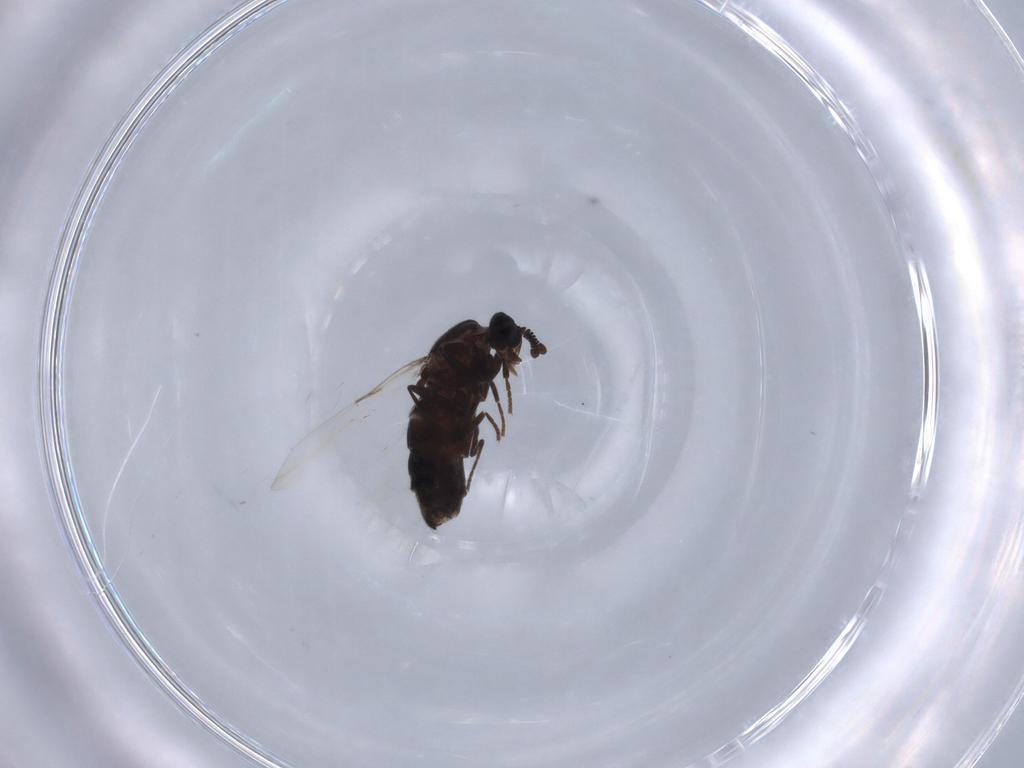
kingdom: Animalia
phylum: Arthropoda
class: Insecta
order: Diptera
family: Scatopsidae
